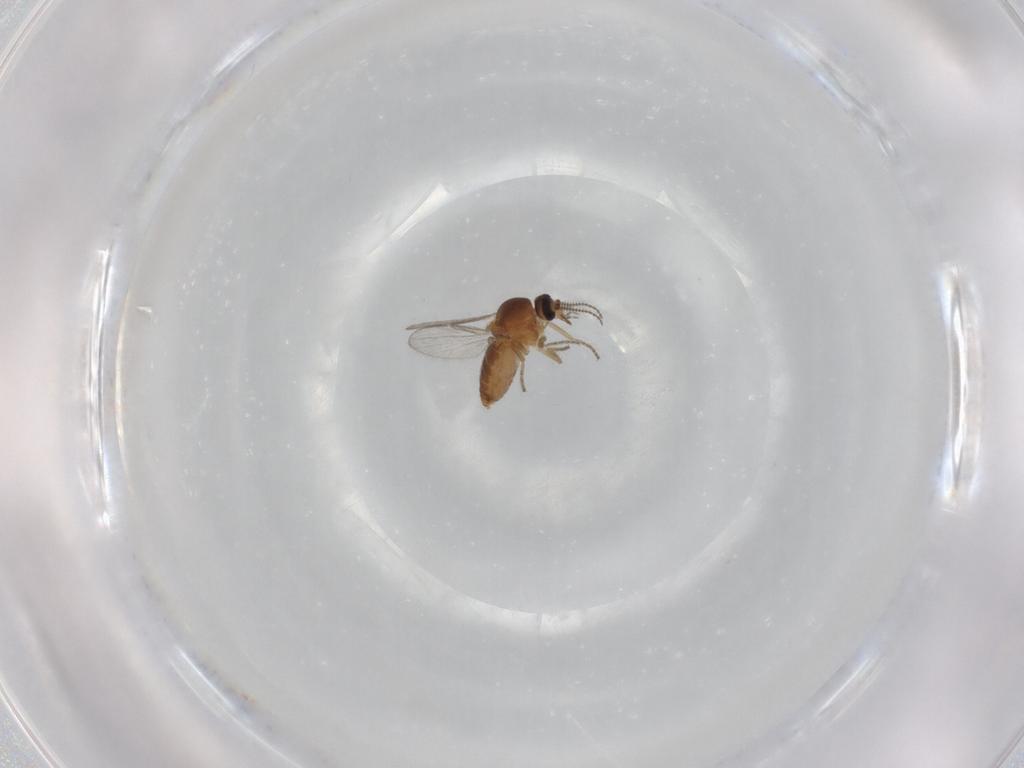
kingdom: Animalia
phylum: Arthropoda
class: Insecta
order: Diptera
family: Ceratopogonidae
